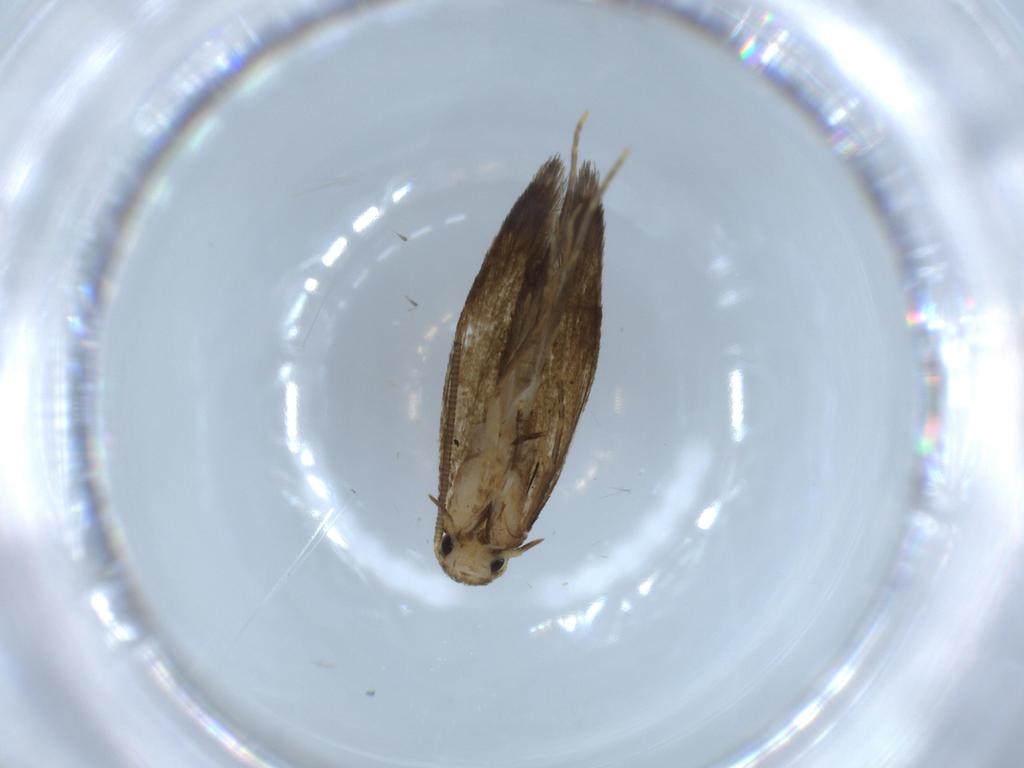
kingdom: Animalia
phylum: Arthropoda
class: Insecta
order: Lepidoptera
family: Tineidae
